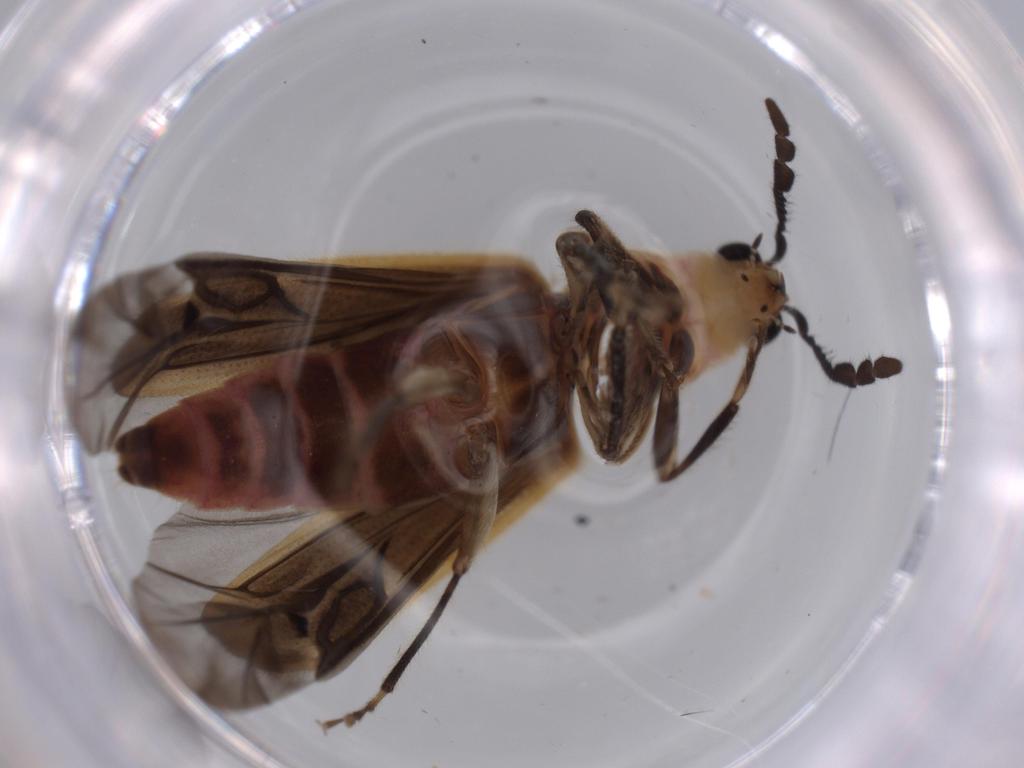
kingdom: Animalia
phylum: Arthropoda
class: Insecta
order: Coleoptera
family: Cleridae
